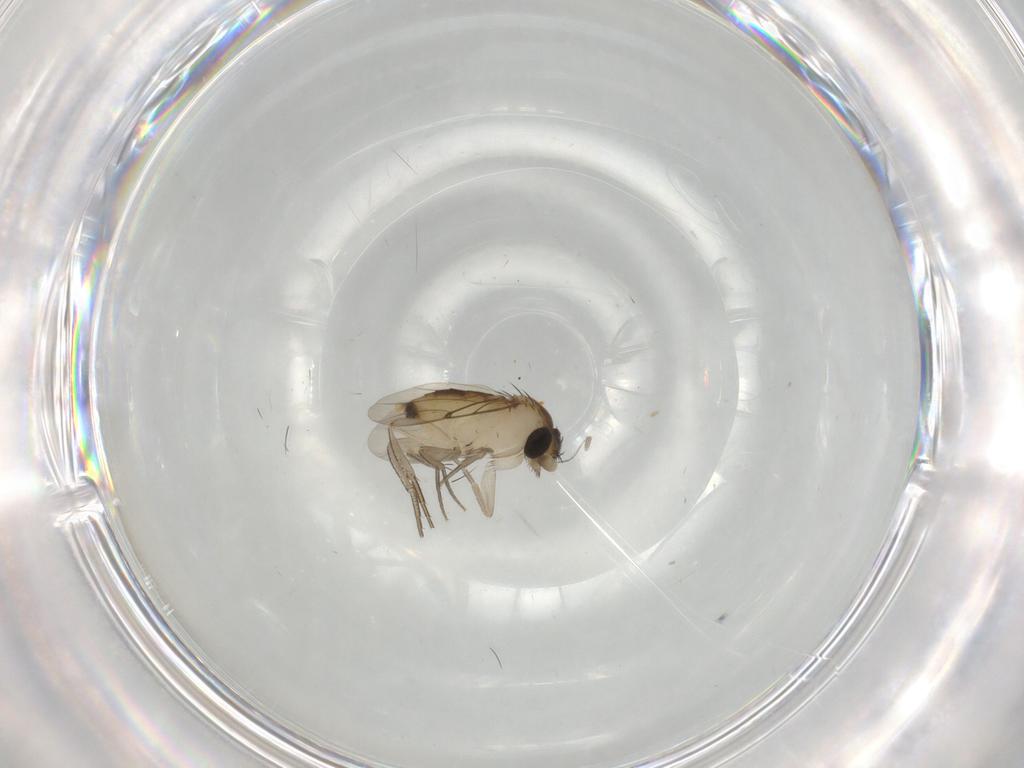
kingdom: Animalia
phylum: Arthropoda
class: Insecta
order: Diptera
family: Sciaridae
